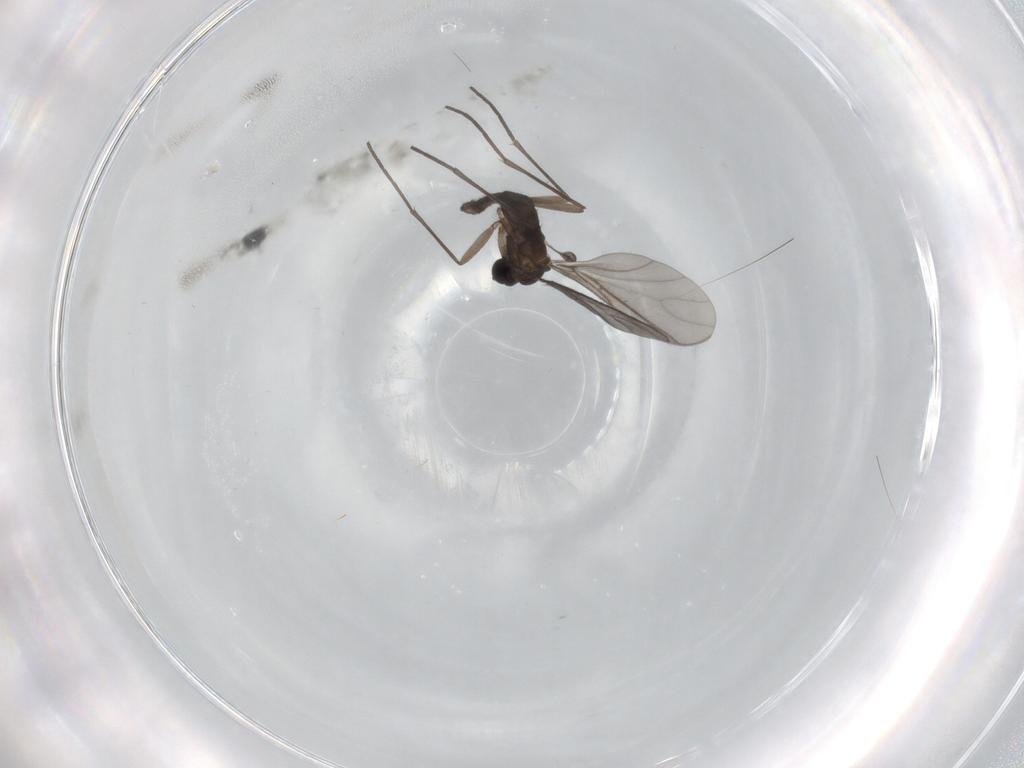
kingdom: Animalia
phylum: Arthropoda
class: Insecta
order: Diptera
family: Sciaridae
